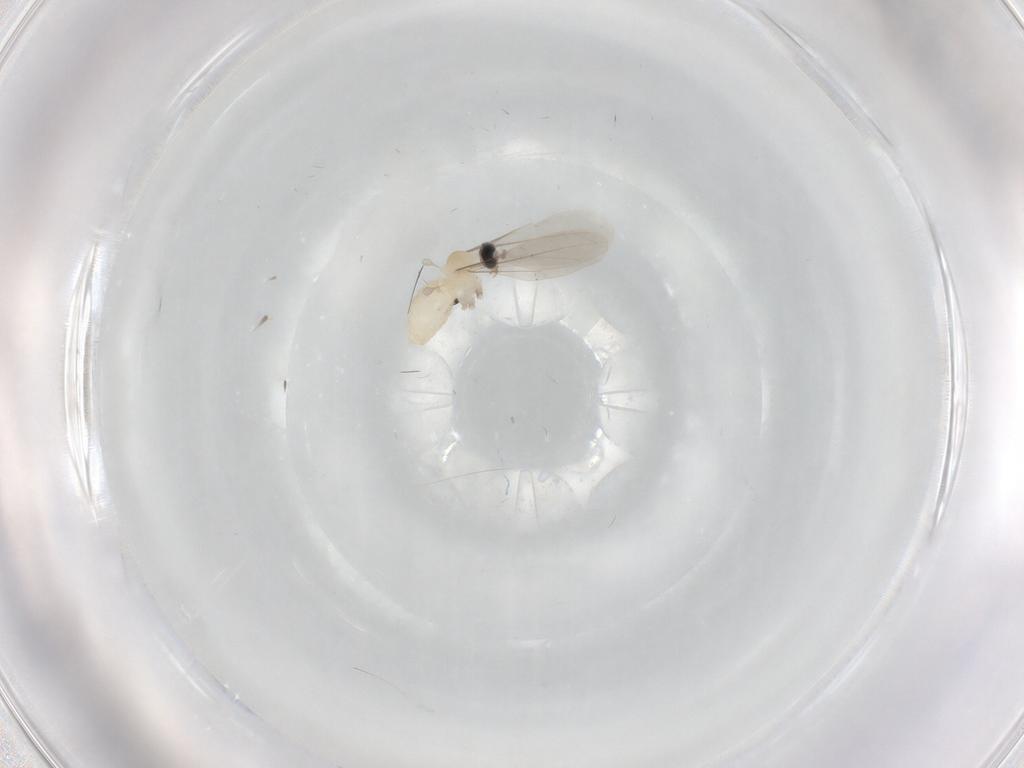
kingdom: Animalia
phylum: Arthropoda
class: Insecta
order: Diptera
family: Phoridae
